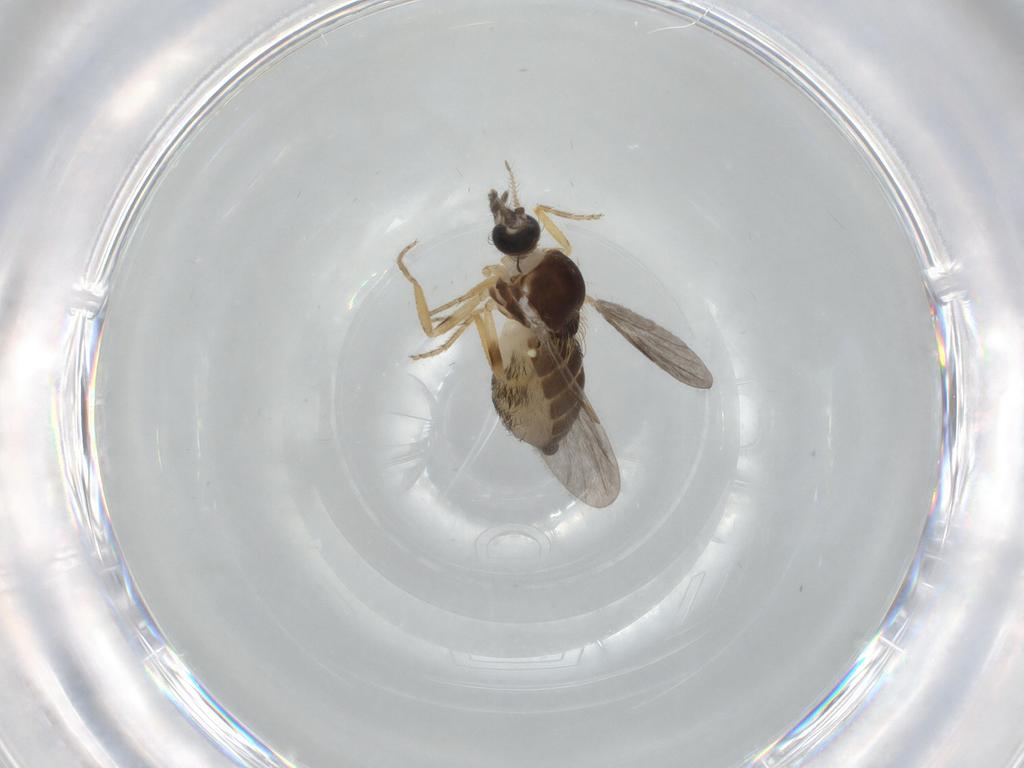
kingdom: Animalia
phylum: Arthropoda
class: Insecta
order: Diptera
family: Ceratopogonidae
